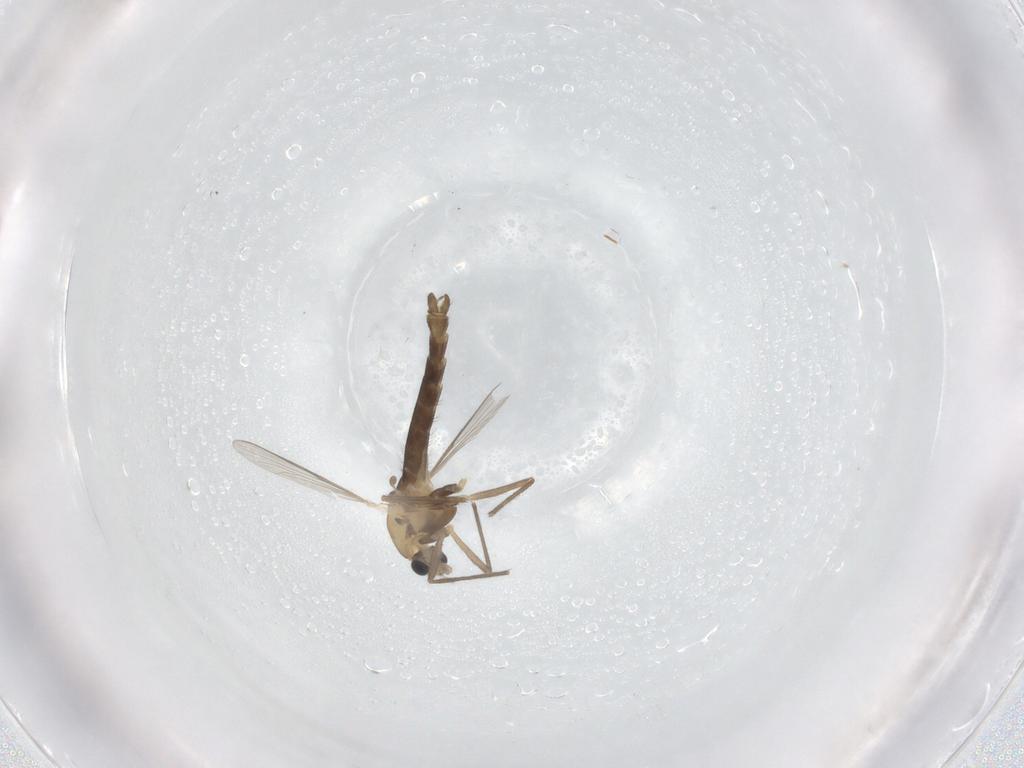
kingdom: Animalia
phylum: Arthropoda
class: Insecta
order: Diptera
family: Chironomidae
